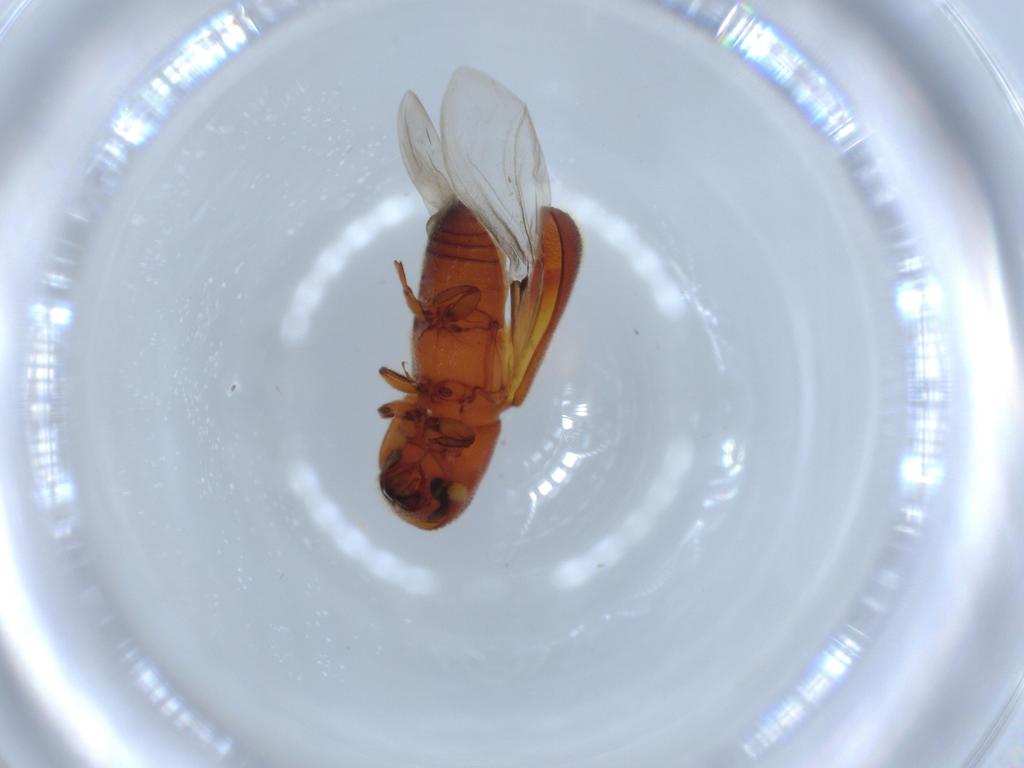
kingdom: Animalia
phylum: Arthropoda
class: Insecta
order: Coleoptera
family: Curculionidae
